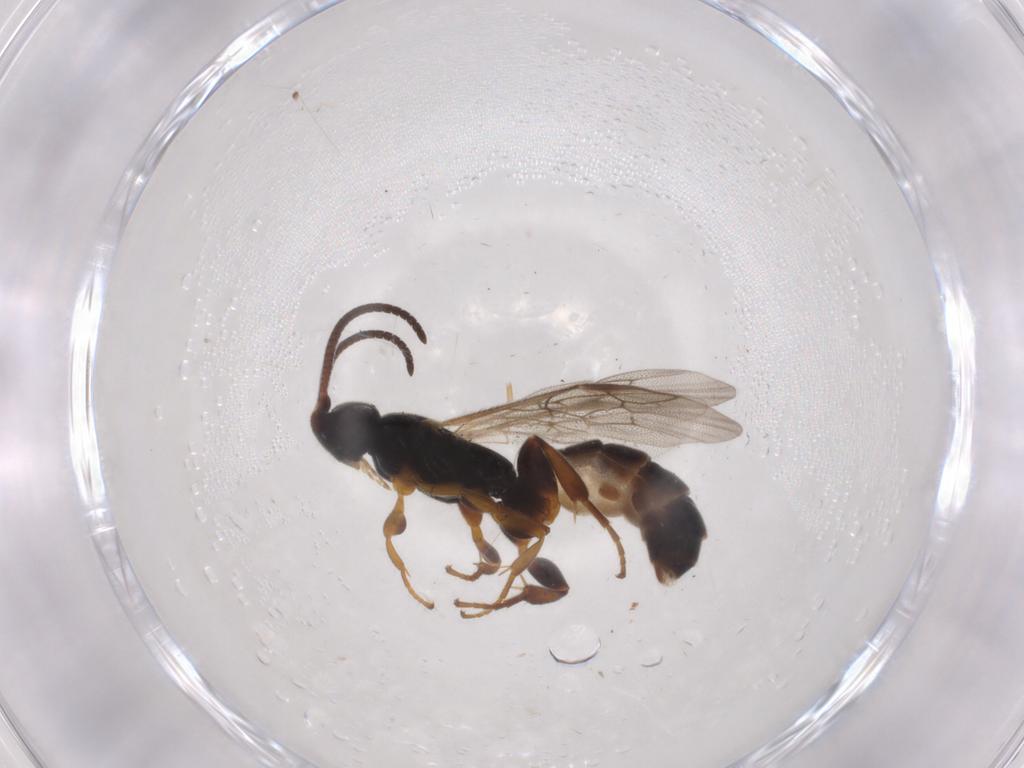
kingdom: Animalia
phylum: Arthropoda
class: Insecta
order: Hymenoptera
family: Ichneumonidae
